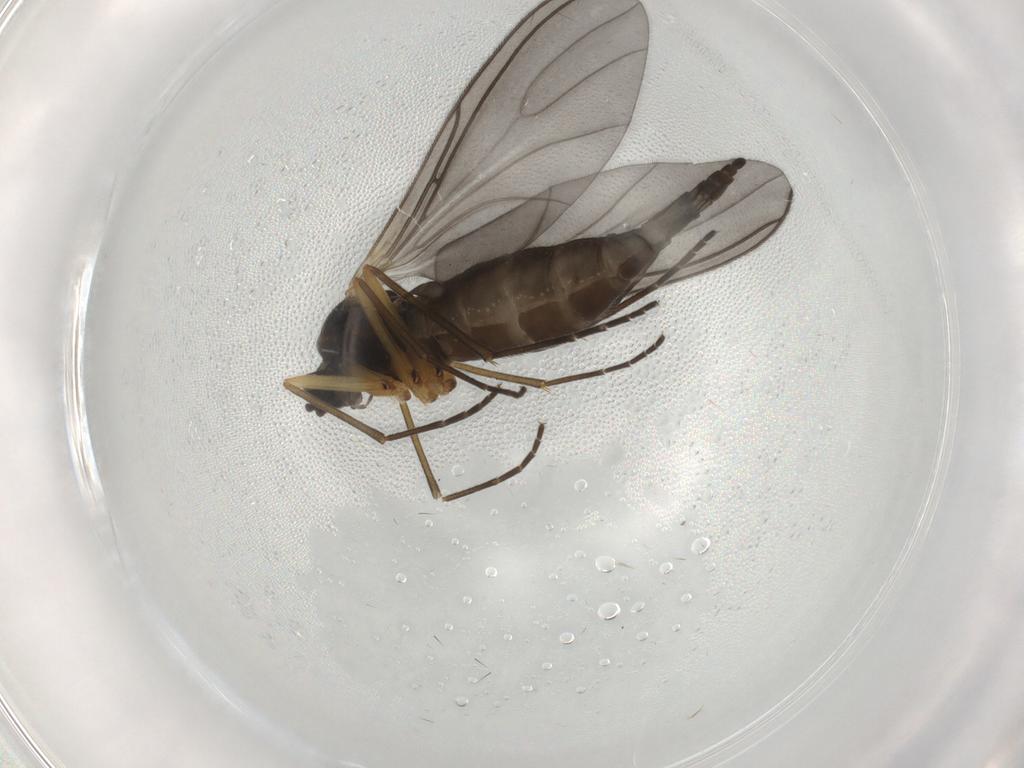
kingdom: Animalia
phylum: Arthropoda
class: Insecta
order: Diptera
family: Sciaridae
